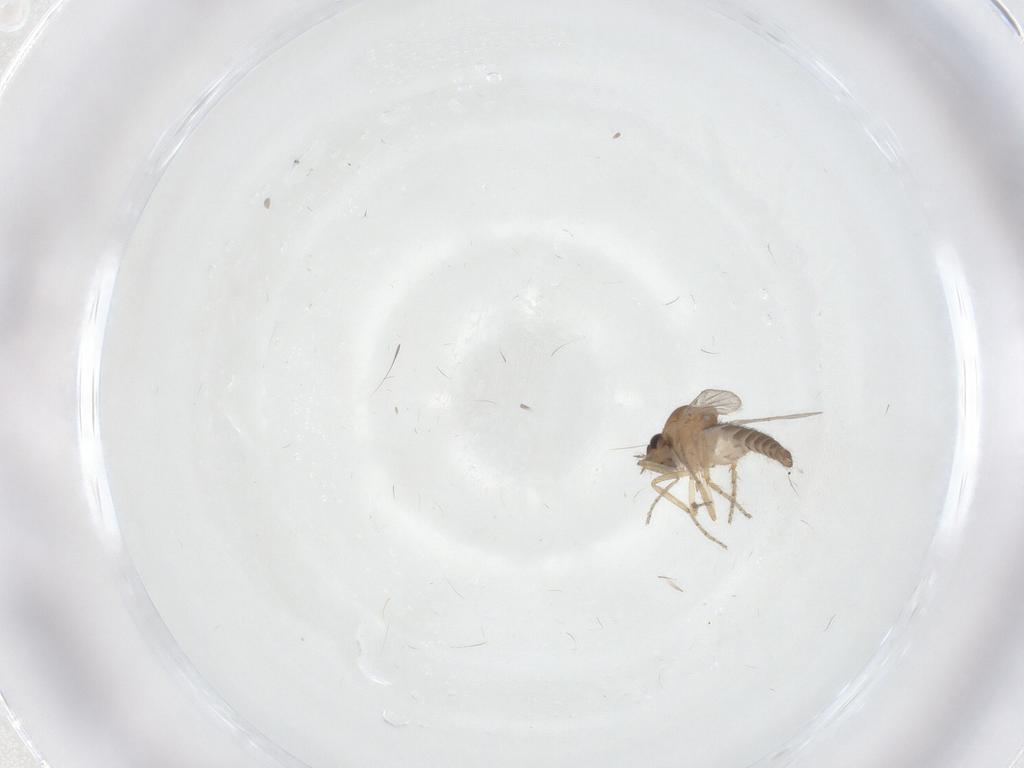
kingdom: Animalia
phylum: Arthropoda
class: Insecta
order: Diptera
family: Ceratopogonidae
